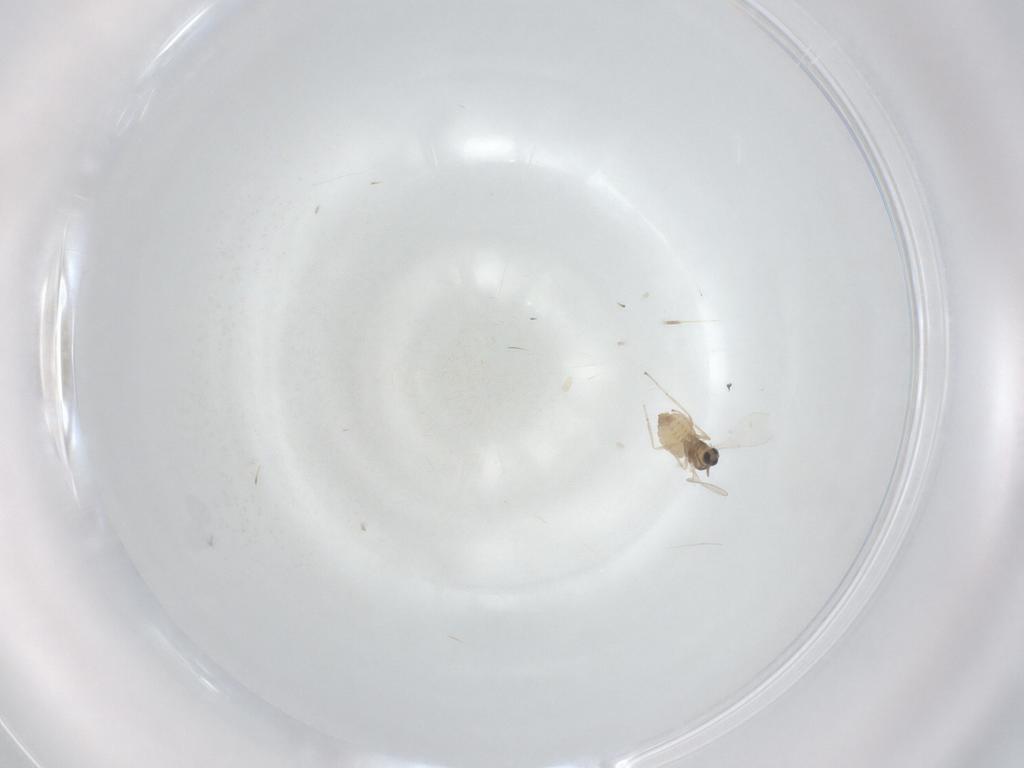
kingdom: Animalia
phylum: Arthropoda
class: Insecta
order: Diptera
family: Cecidomyiidae
